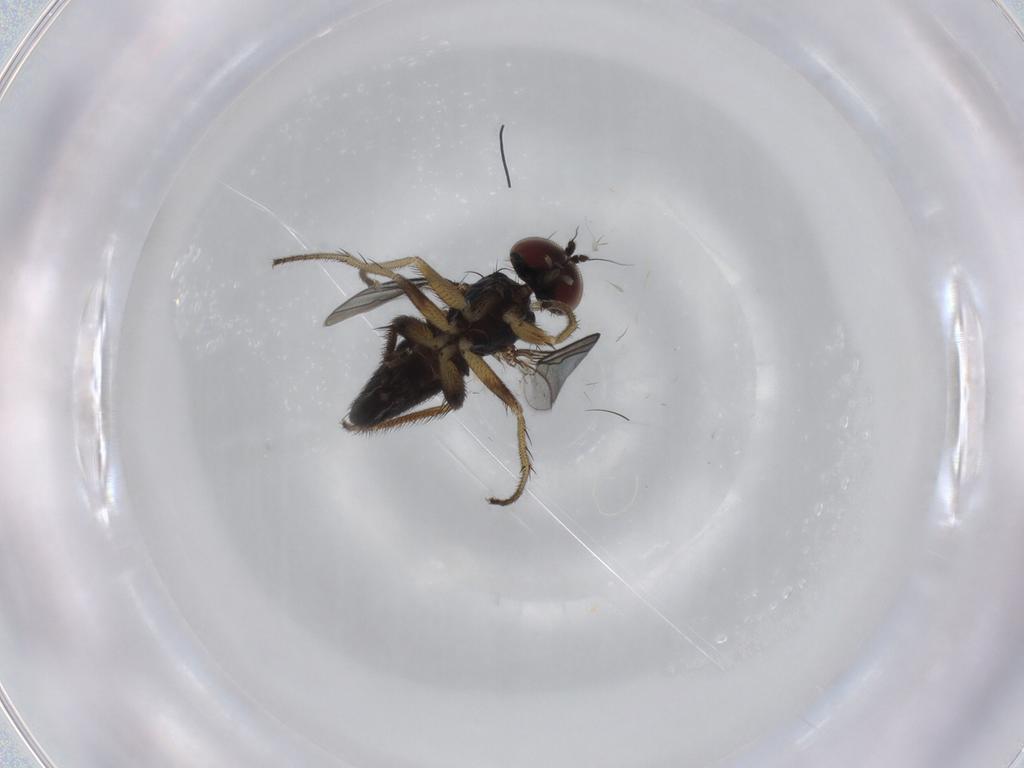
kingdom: Animalia
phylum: Arthropoda
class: Insecta
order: Diptera
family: Dolichopodidae
